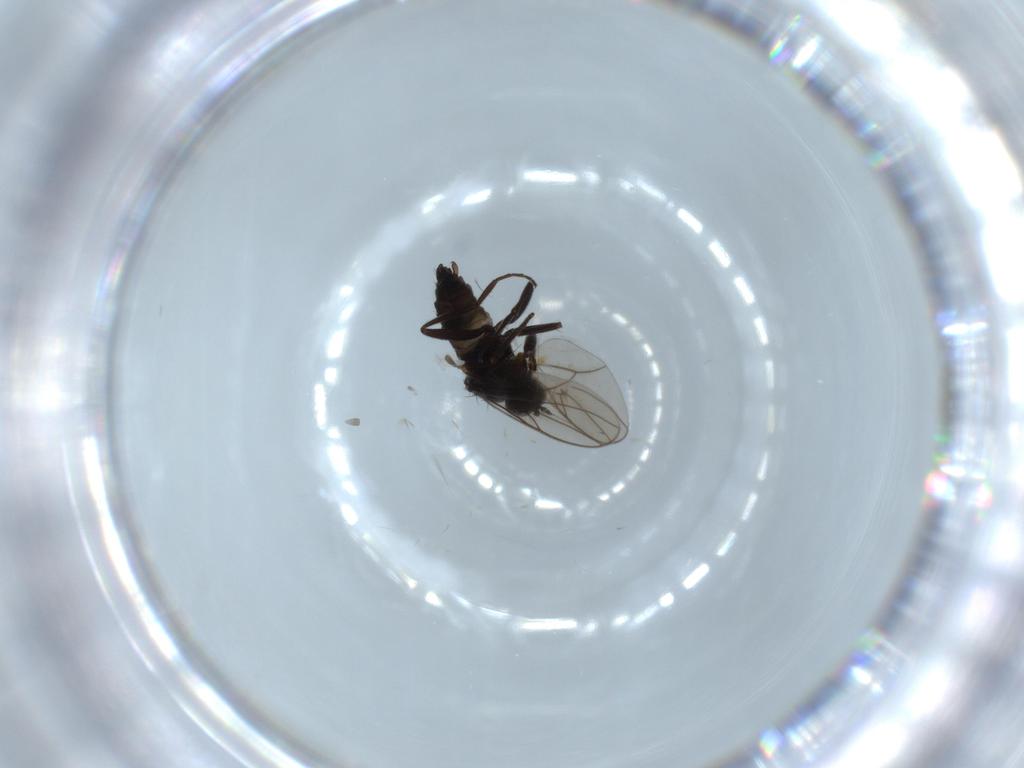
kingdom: Animalia
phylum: Arthropoda
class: Insecta
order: Diptera
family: Hybotidae
